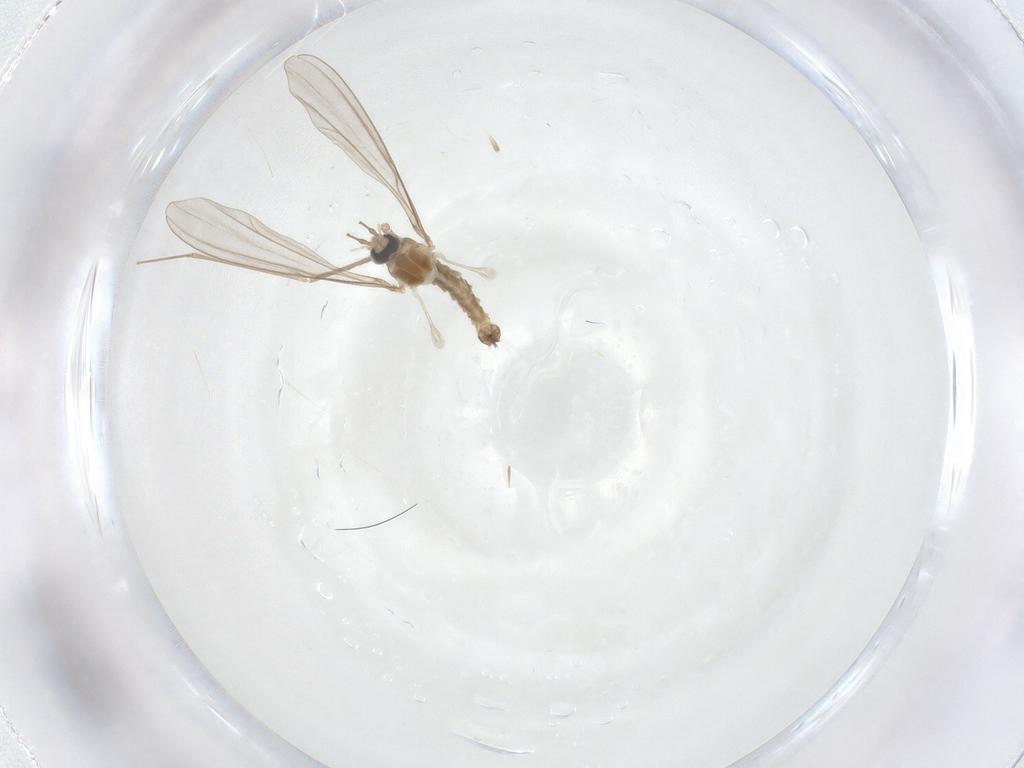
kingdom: Animalia
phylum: Arthropoda
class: Insecta
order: Diptera
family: Cecidomyiidae
